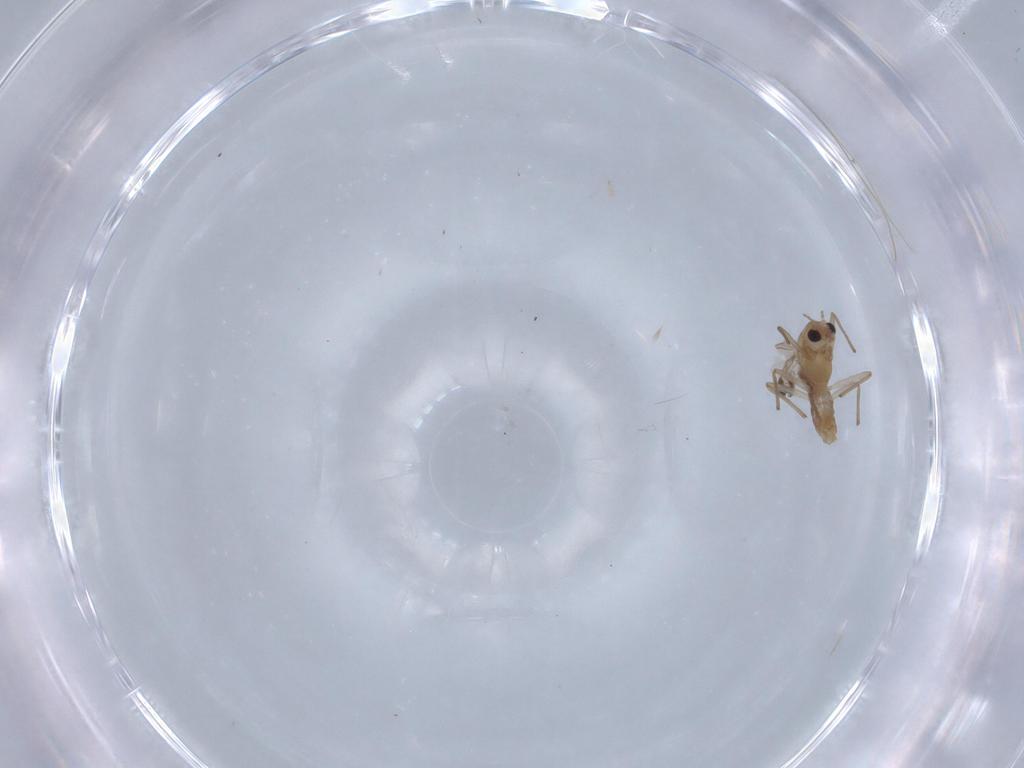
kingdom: Animalia
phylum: Arthropoda
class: Insecta
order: Diptera
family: Chironomidae
